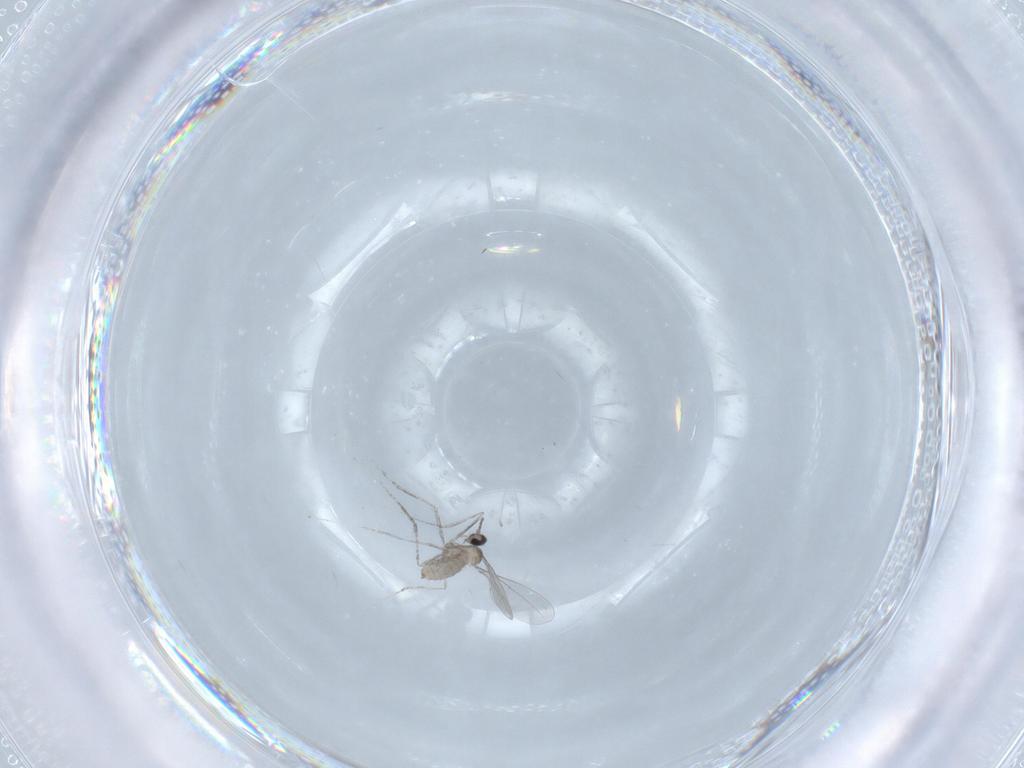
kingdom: Animalia
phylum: Arthropoda
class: Insecta
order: Diptera
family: Cecidomyiidae
